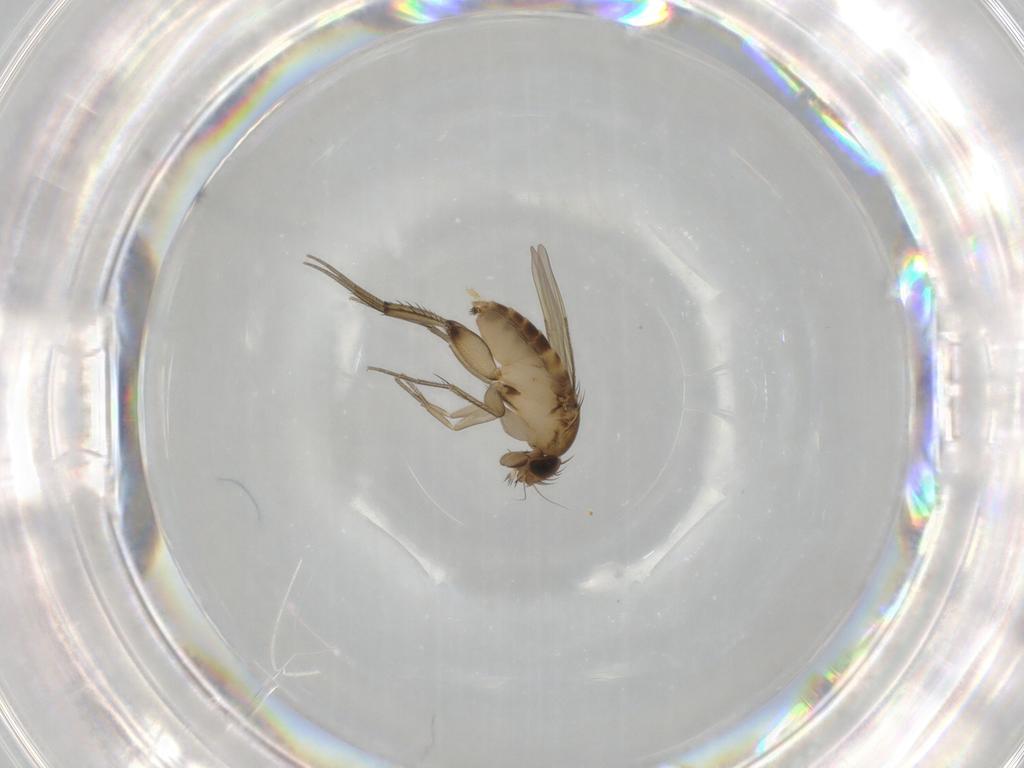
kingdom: Animalia
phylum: Arthropoda
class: Insecta
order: Diptera
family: Phoridae
